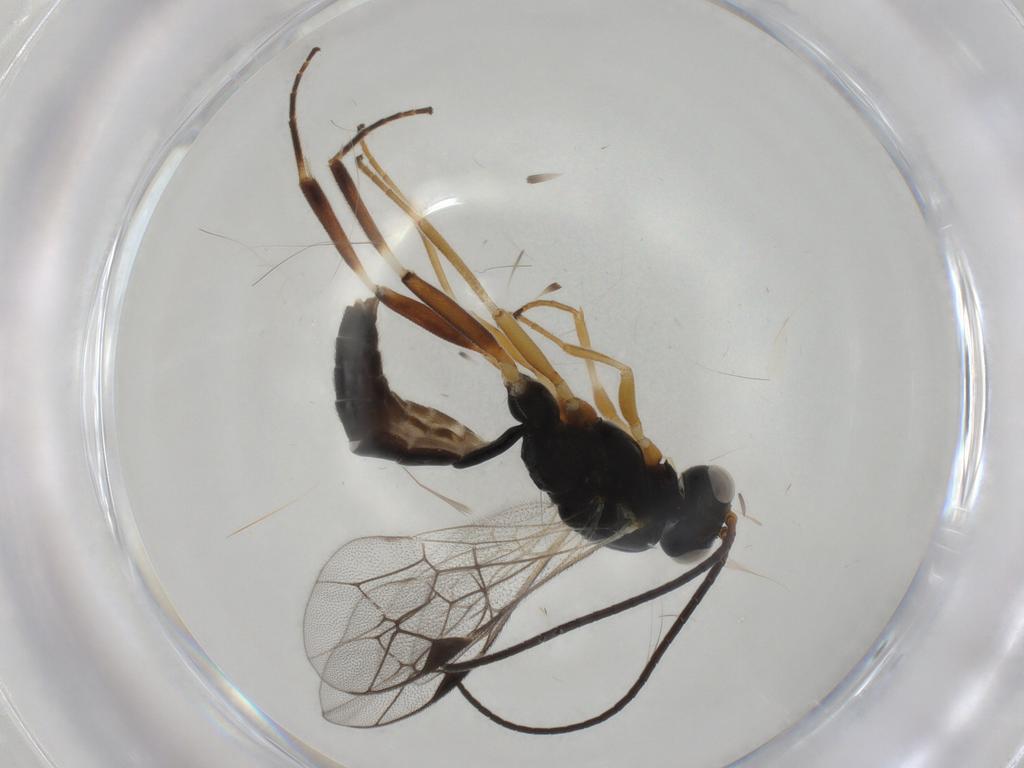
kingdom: Animalia
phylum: Arthropoda
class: Insecta
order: Hymenoptera
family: Ichneumonidae
